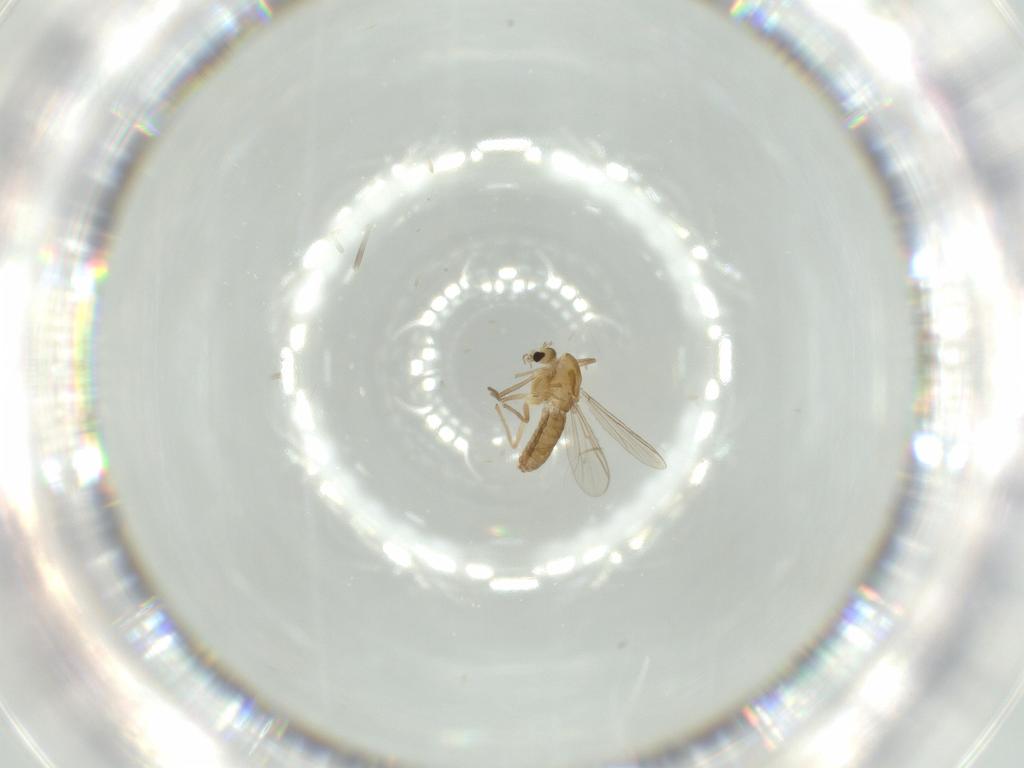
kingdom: Animalia
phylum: Arthropoda
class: Insecta
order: Diptera
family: Chironomidae
